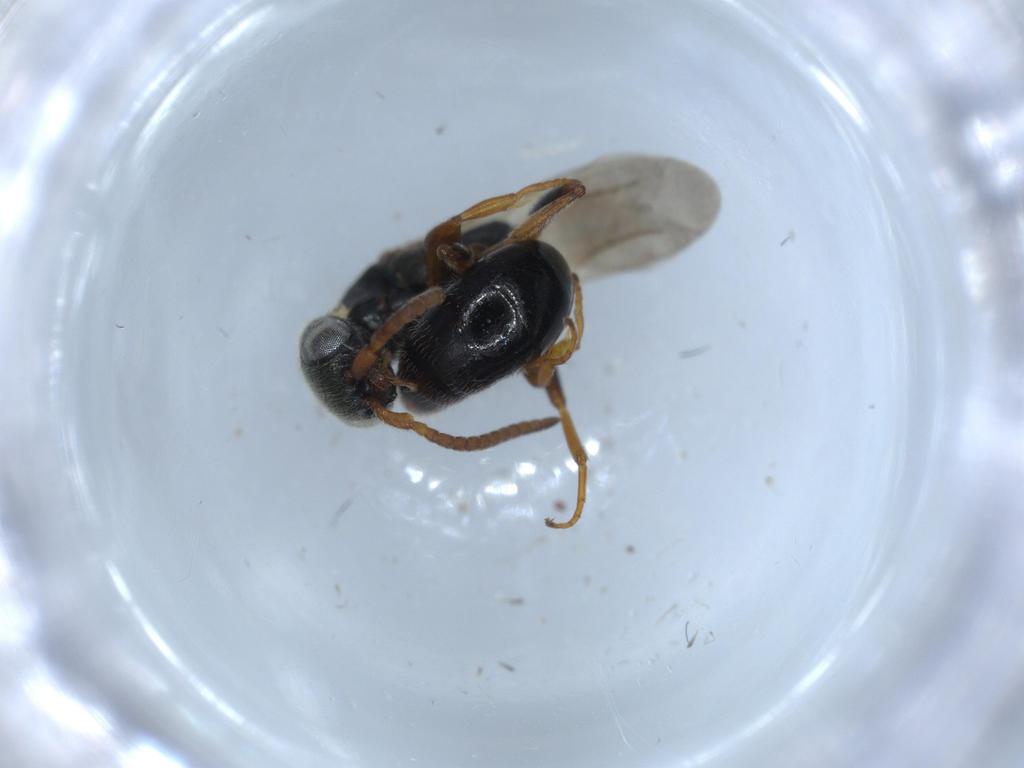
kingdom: Animalia
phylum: Arthropoda
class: Insecta
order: Hymenoptera
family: Bethylidae
